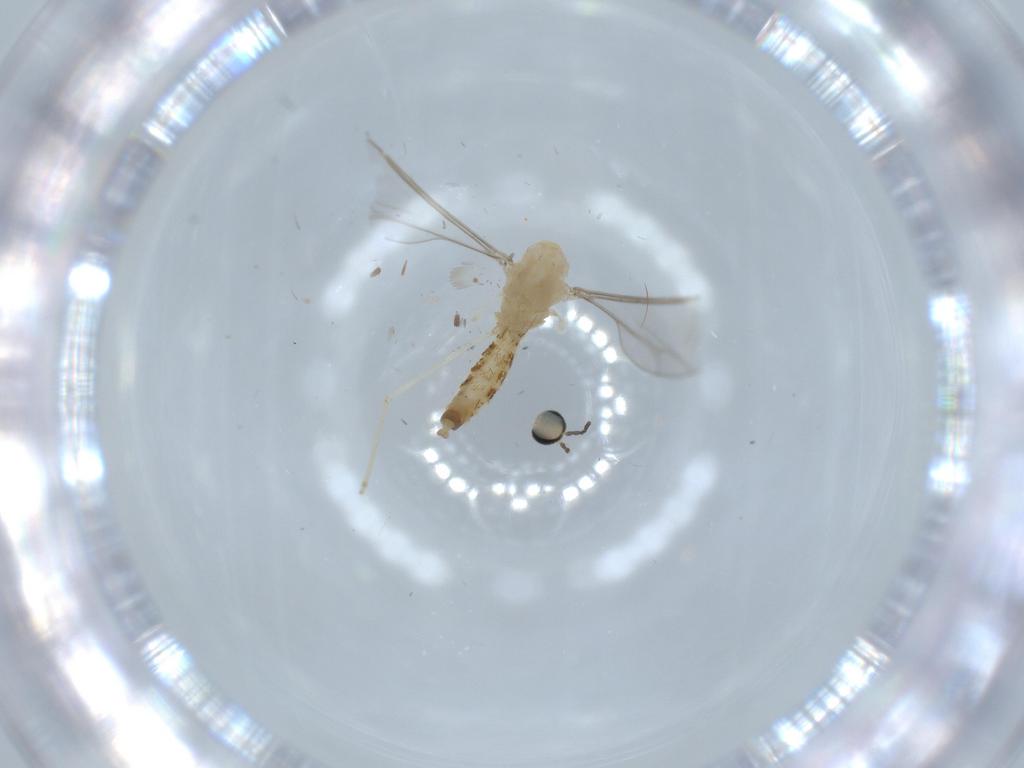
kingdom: Animalia
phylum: Arthropoda
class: Insecta
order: Diptera
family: Cecidomyiidae
